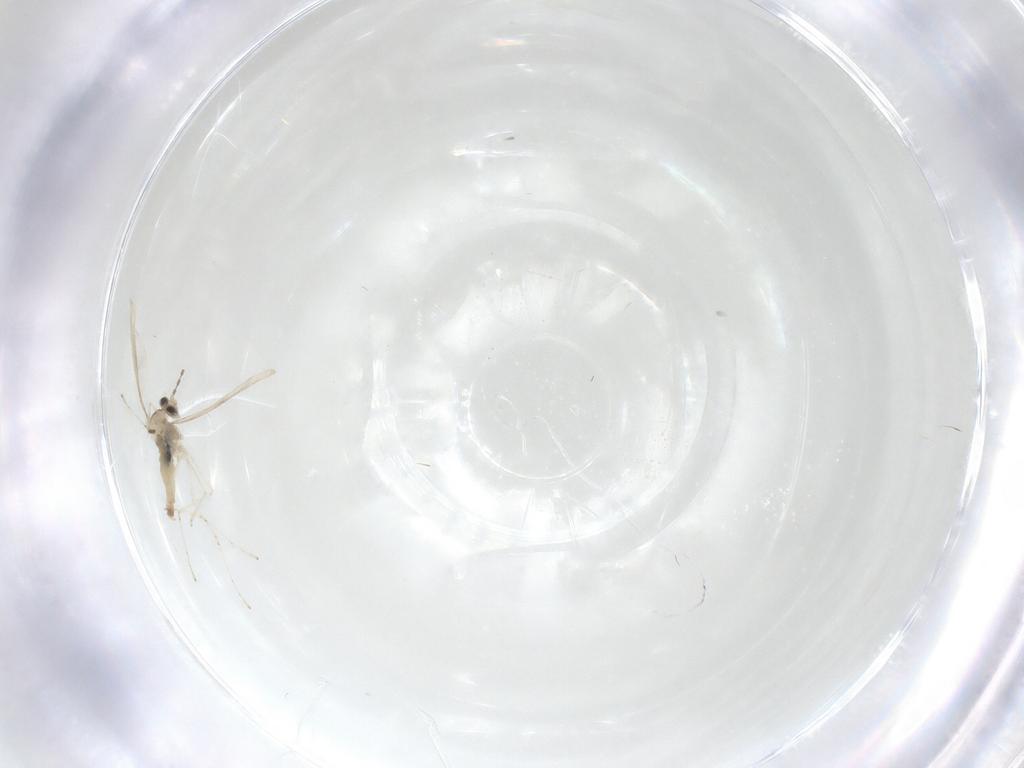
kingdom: Animalia
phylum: Arthropoda
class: Insecta
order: Diptera
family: Cecidomyiidae
